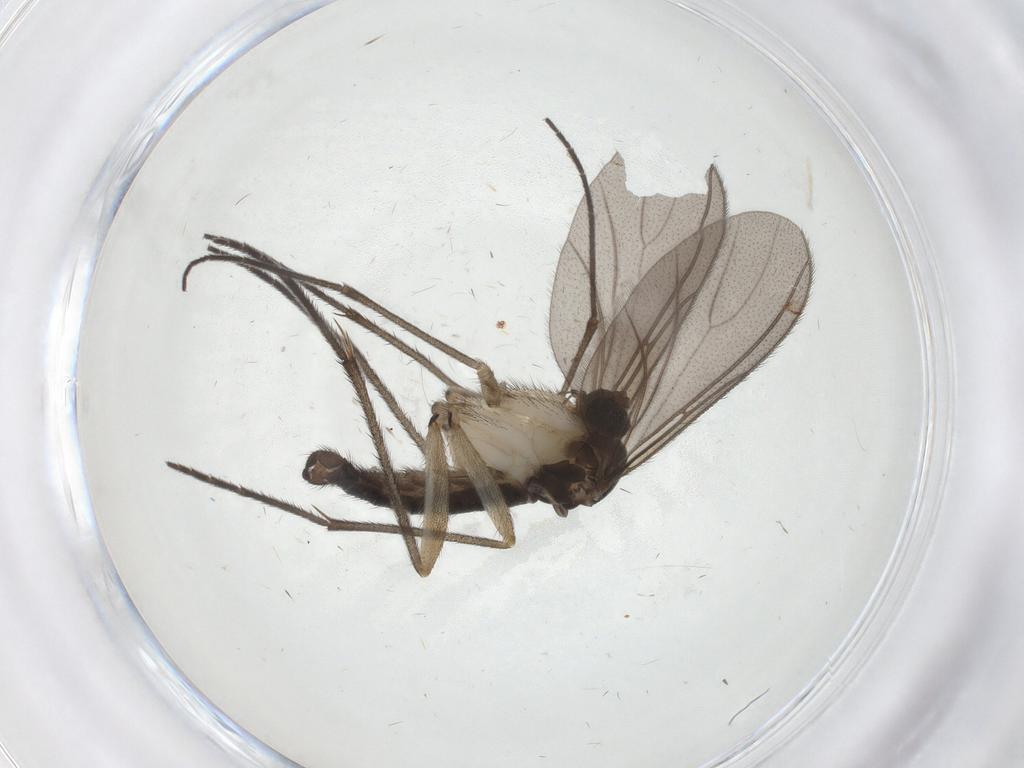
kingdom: Animalia
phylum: Arthropoda
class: Insecta
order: Diptera
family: Sciaridae
